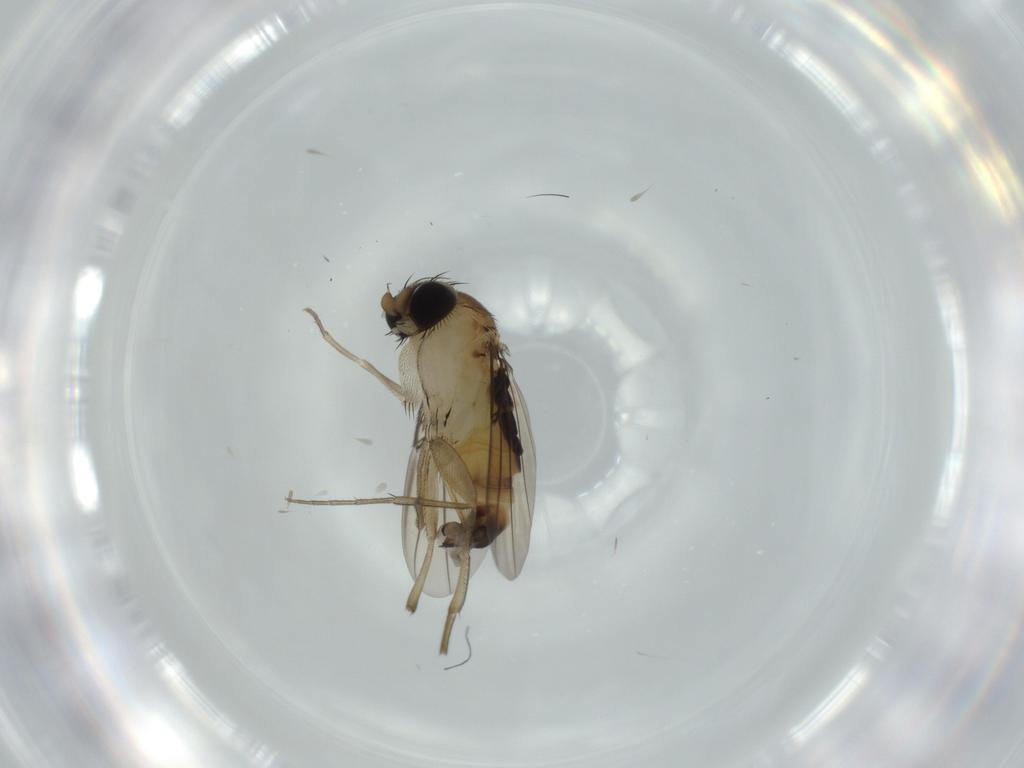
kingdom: Animalia
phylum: Arthropoda
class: Insecta
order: Diptera
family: Phoridae
